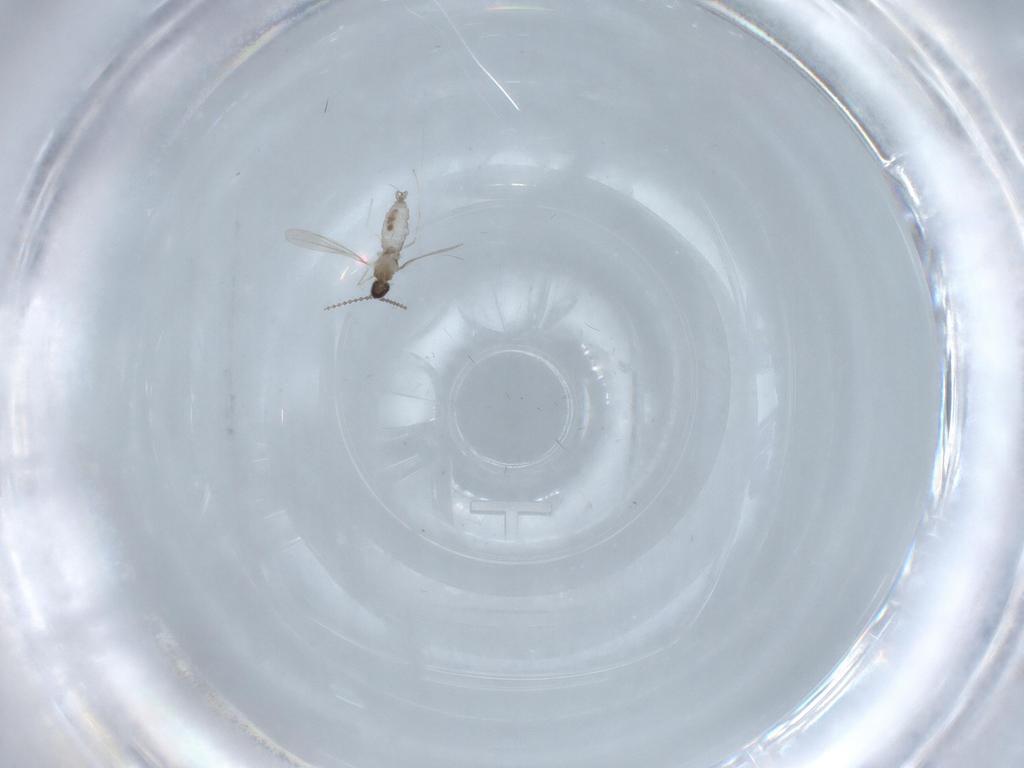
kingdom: Animalia
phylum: Arthropoda
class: Insecta
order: Diptera
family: Cecidomyiidae
